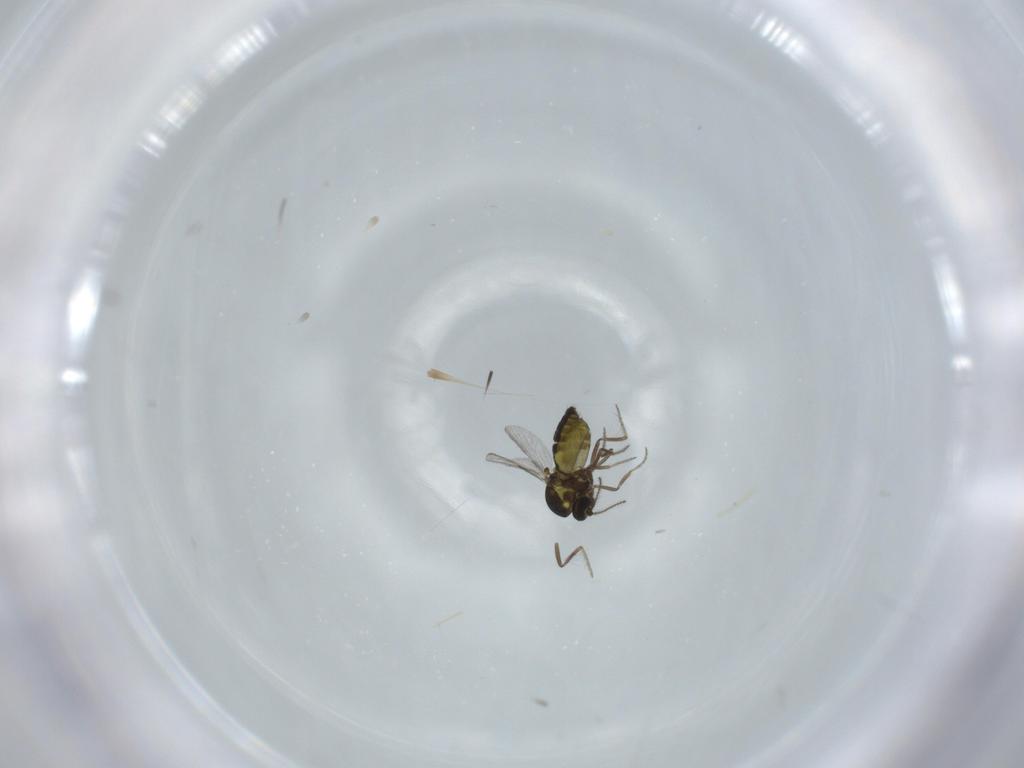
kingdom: Animalia
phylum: Arthropoda
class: Insecta
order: Diptera
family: Ceratopogonidae
